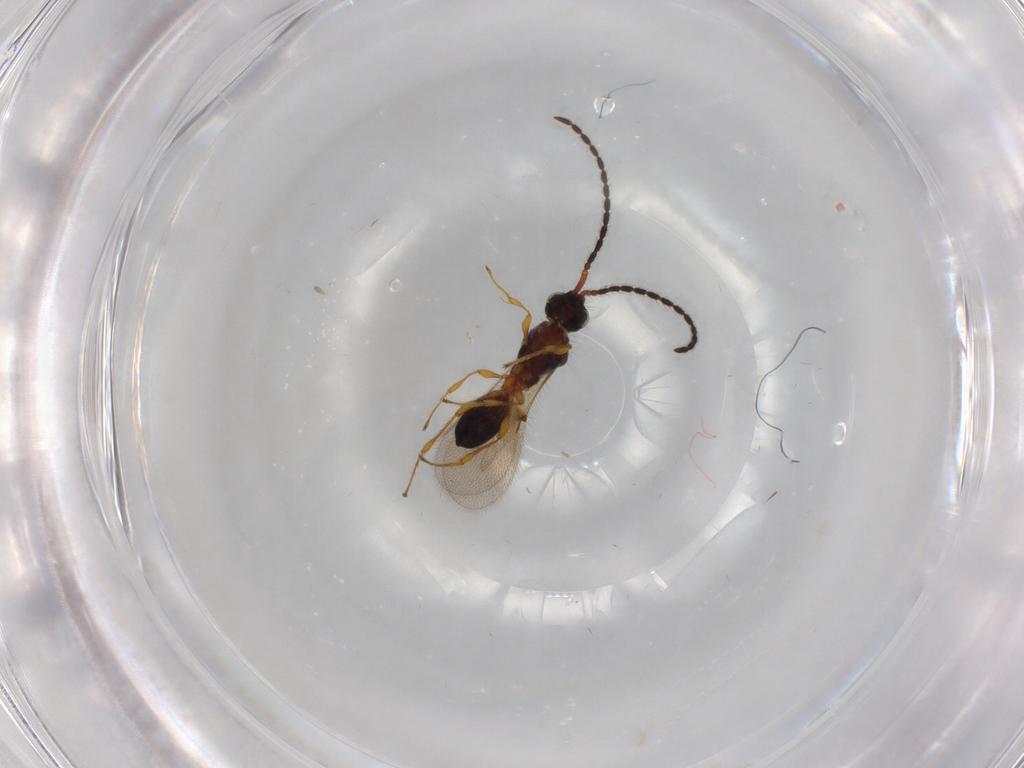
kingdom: Animalia
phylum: Arthropoda
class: Insecta
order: Hymenoptera
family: Diapriidae
